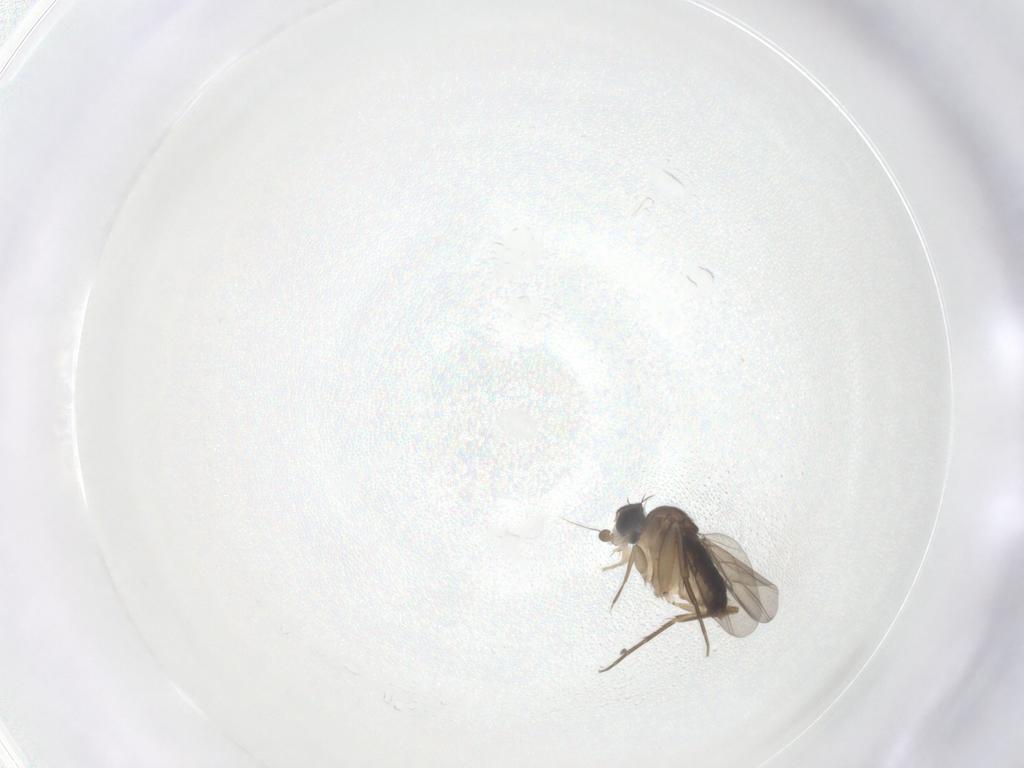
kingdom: Animalia
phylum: Arthropoda
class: Insecta
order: Diptera
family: Phoridae
